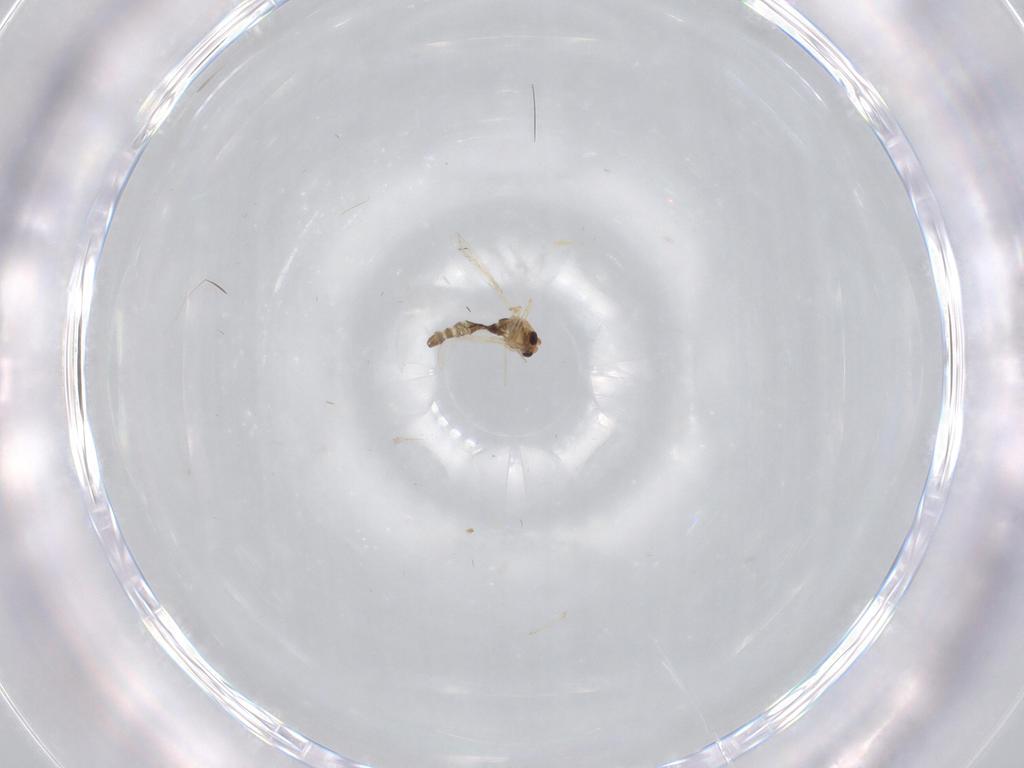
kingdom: Animalia
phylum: Arthropoda
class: Insecta
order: Diptera
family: Chironomidae
